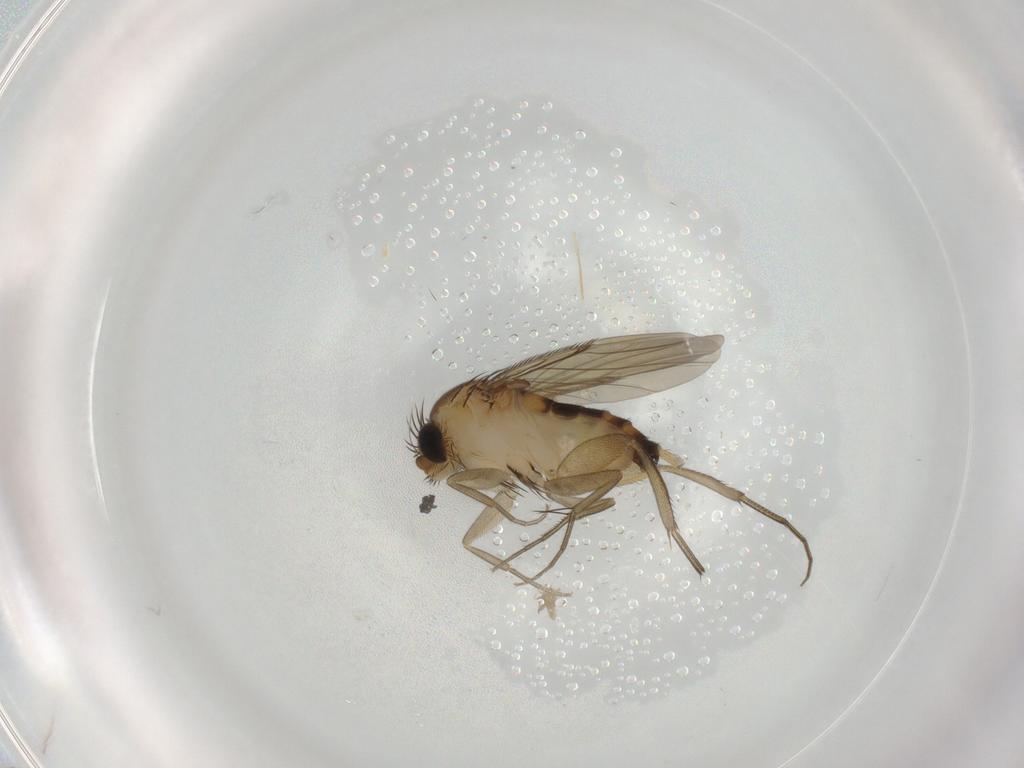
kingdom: Animalia
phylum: Arthropoda
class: Insecta
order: Diptera
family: Phoridae
